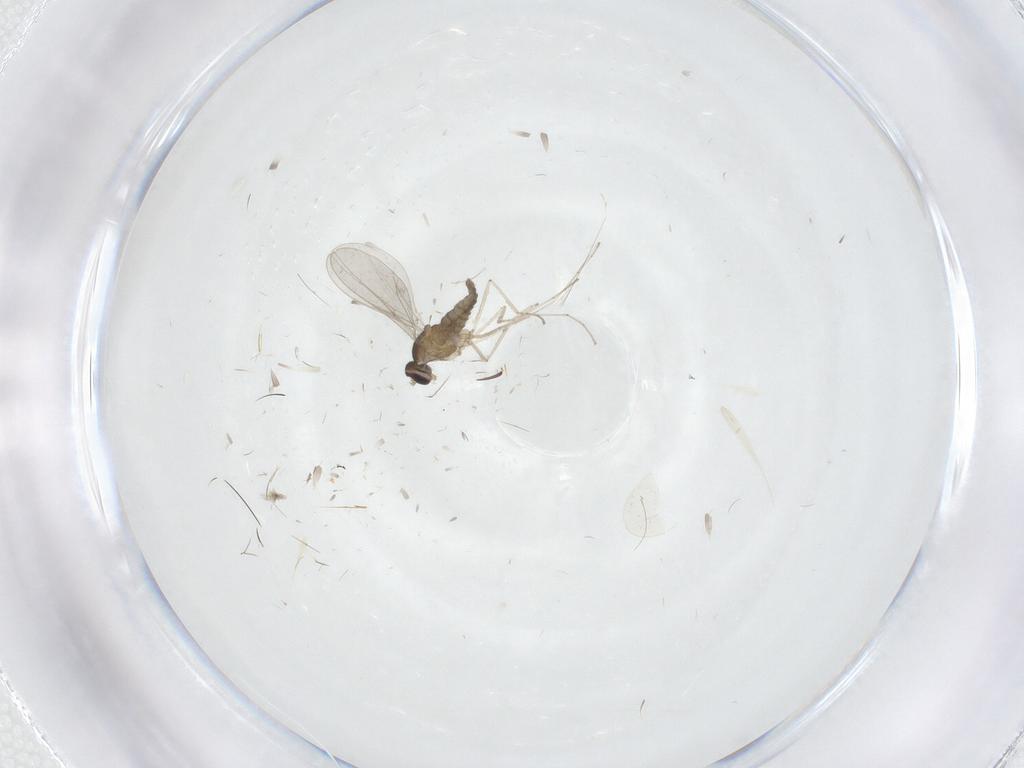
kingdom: Animalia
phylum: Arthropoda
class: Insecta
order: Diptera
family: Cecidomyiidae
